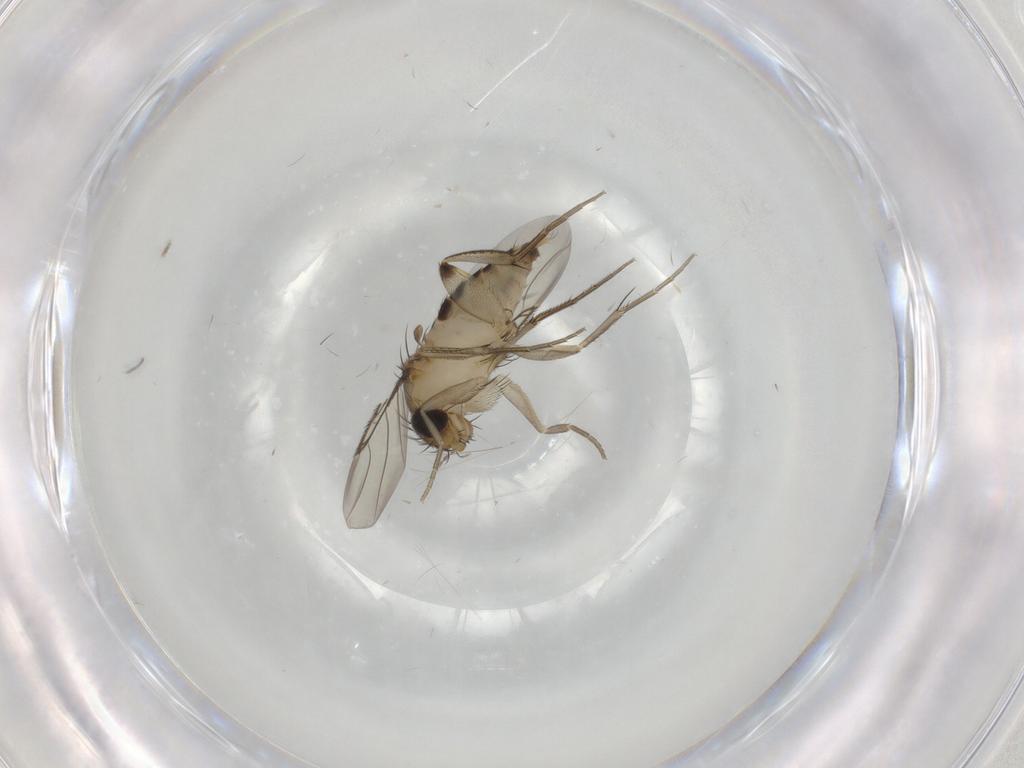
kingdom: Animalia
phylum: Arthropoda
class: Insecta
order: Diptera
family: Phoridae
